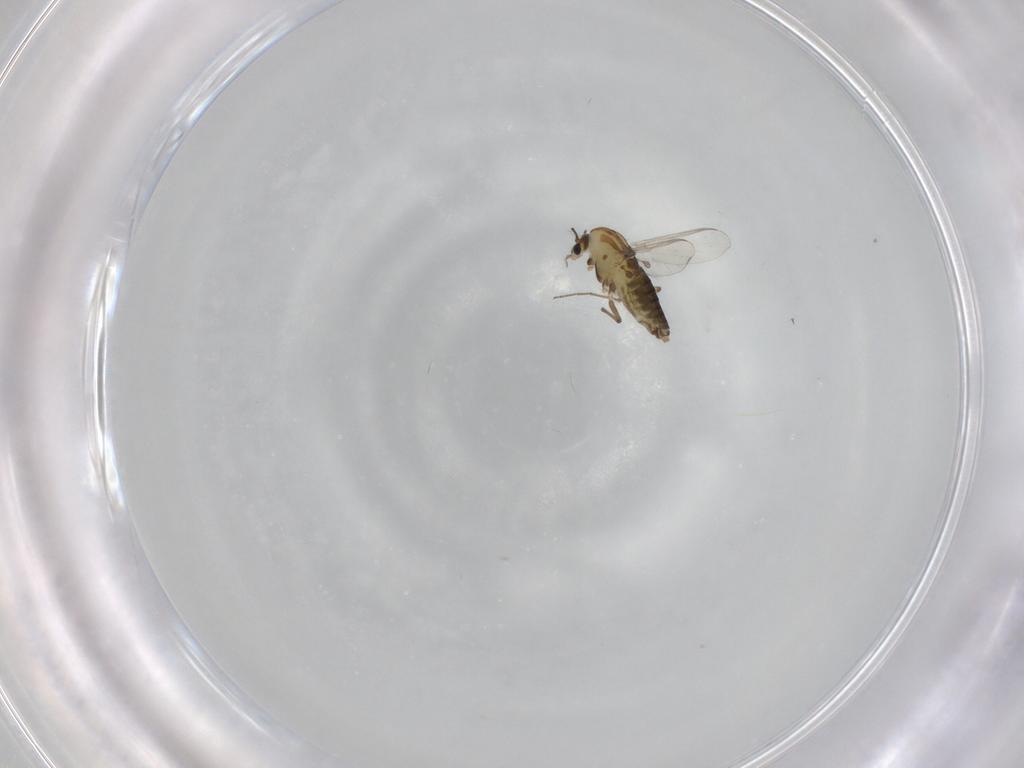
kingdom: Animalia
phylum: Arthropoda
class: Insecta
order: Diptera
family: Chironomidae
